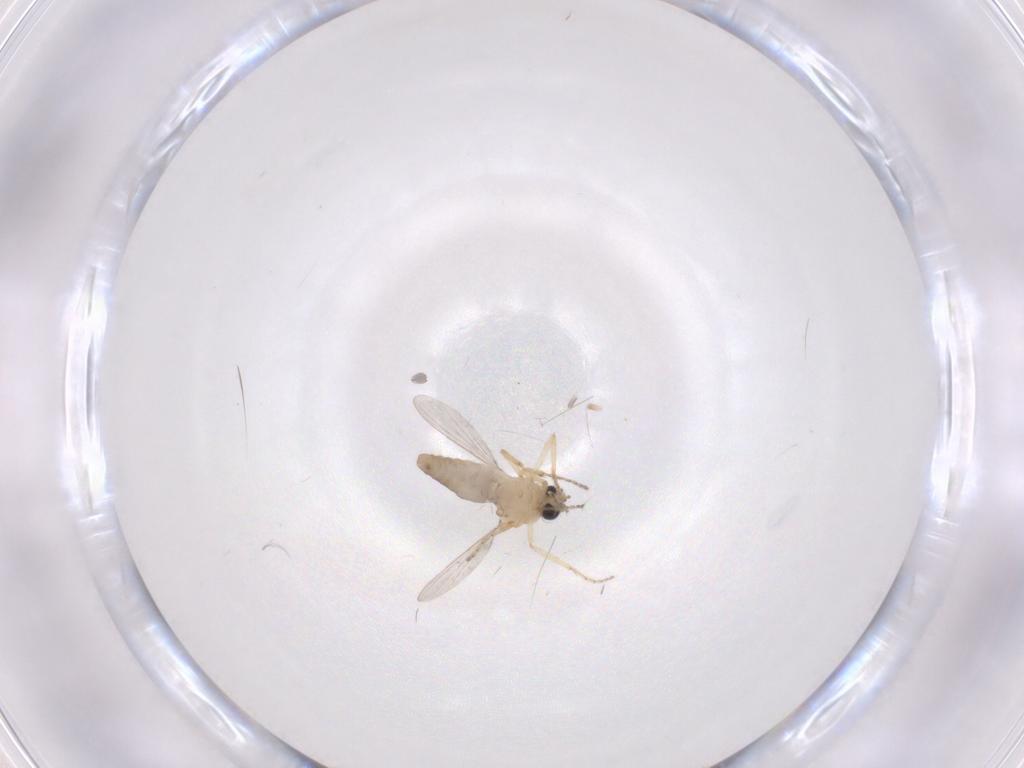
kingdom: Animalia
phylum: Arthropoda
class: Insecta
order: Diptera
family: Ceratopogonidae
